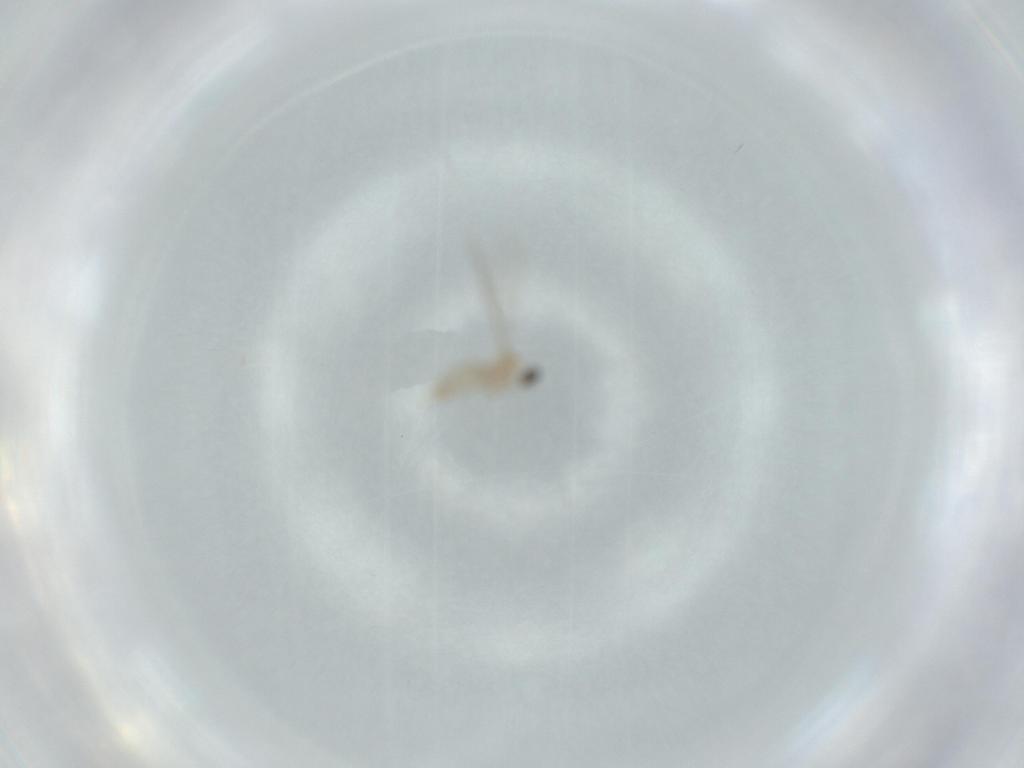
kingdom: Animalia
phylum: Arthropoda
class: Insecta
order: Diptera
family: Cecidomyiidae
